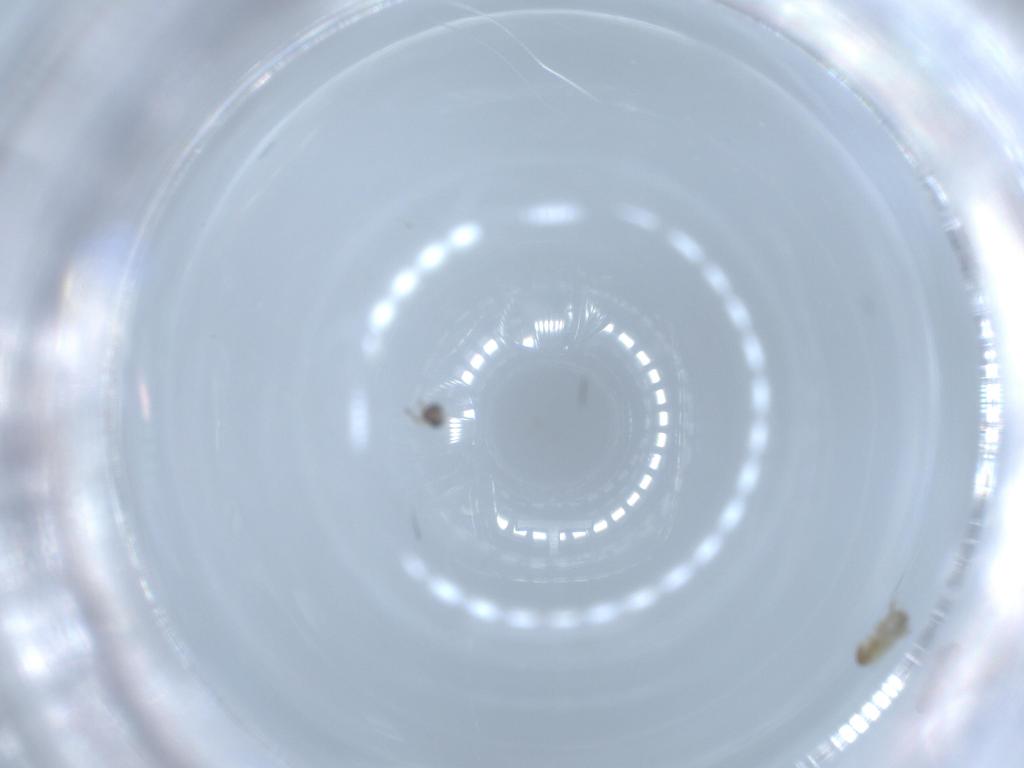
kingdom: Animalia
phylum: Arthropoda
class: Insecta
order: Diptera
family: Cecidomyiidae
